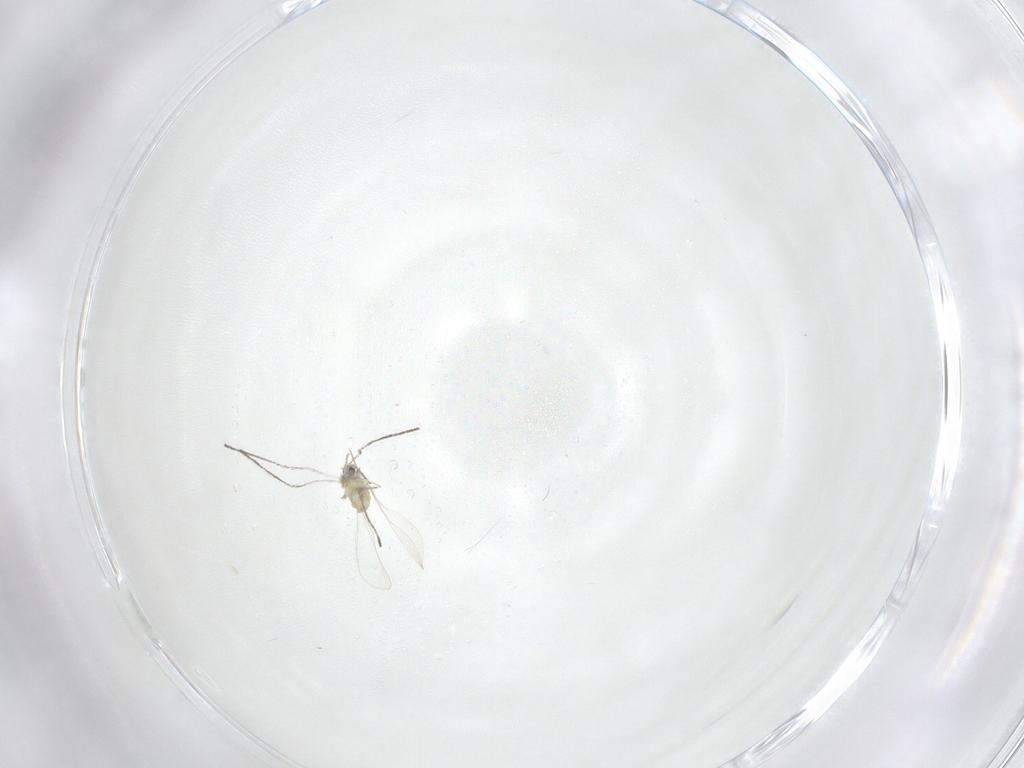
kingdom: Animalia
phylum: Arthropoda
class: Insecta
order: Diptera
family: Cecidomyiidae
